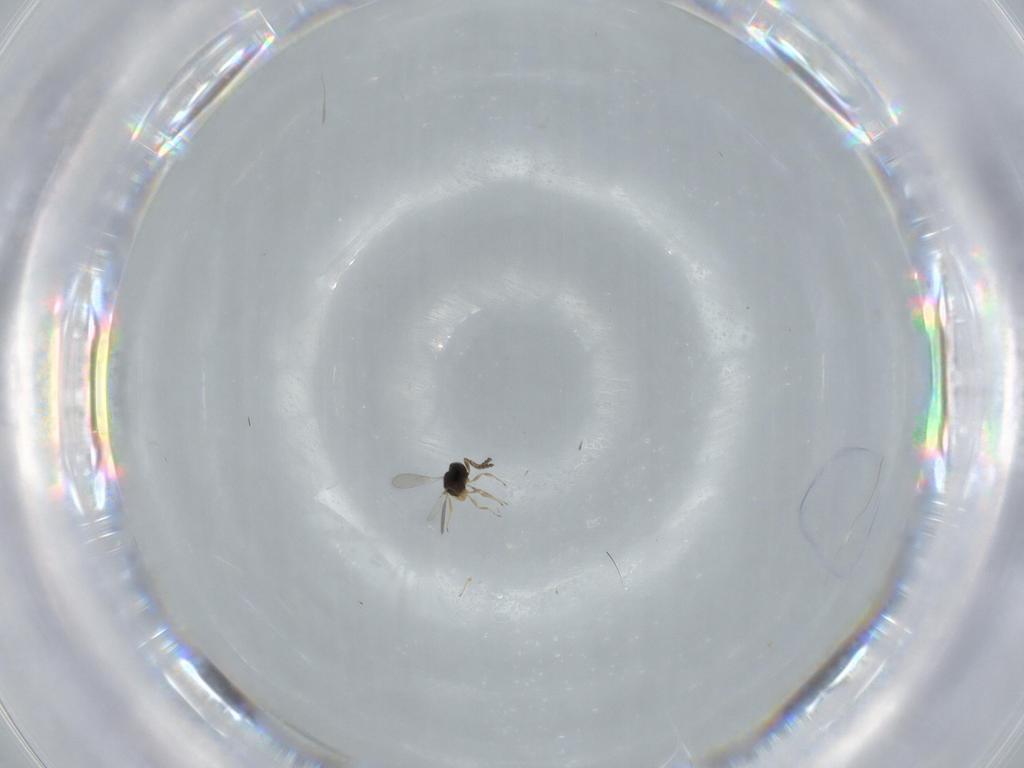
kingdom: Animalia
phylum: Arthropoda
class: Insecta
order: Hymenoptera
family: Scelionidae
